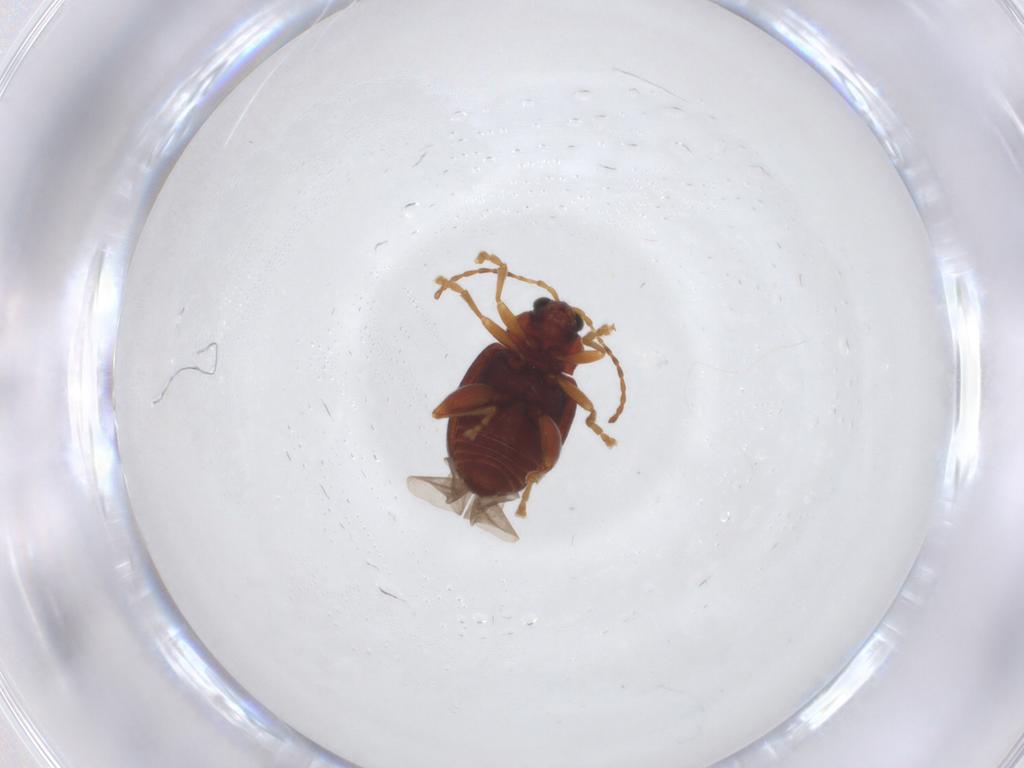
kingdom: Animalia
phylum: Arthropoda
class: Insecta
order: Coleoptera
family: Chrysomelidae
